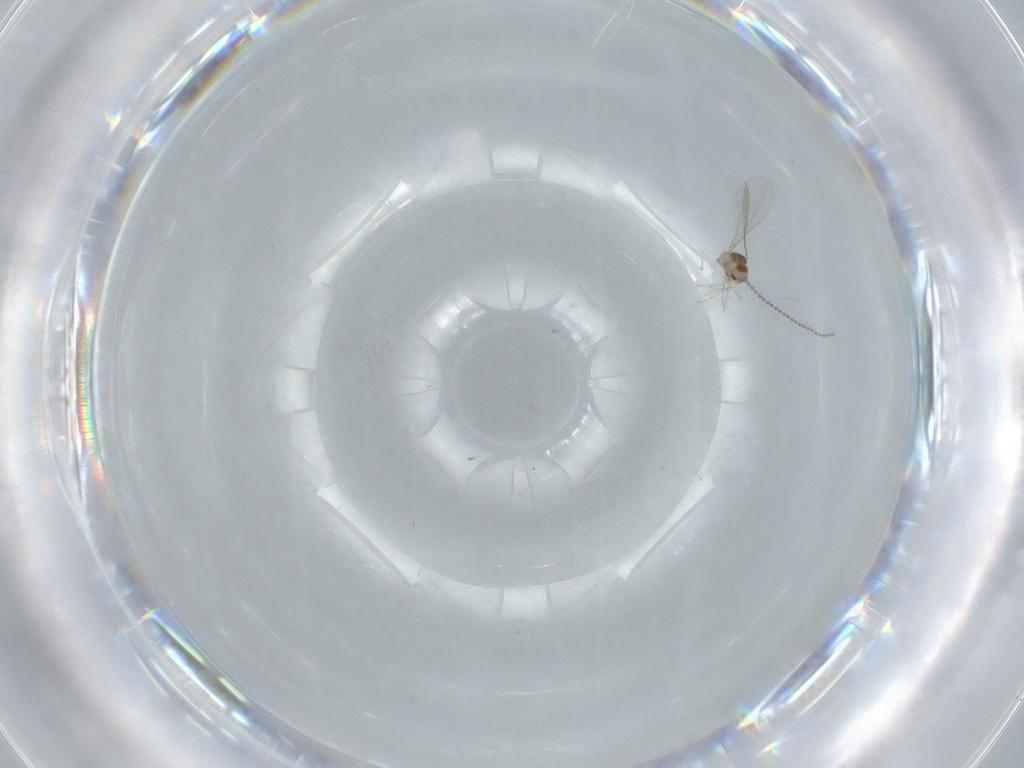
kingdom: Animalia
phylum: Arthropoda
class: Insecta
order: Diptera
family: Cecidomyiidae
